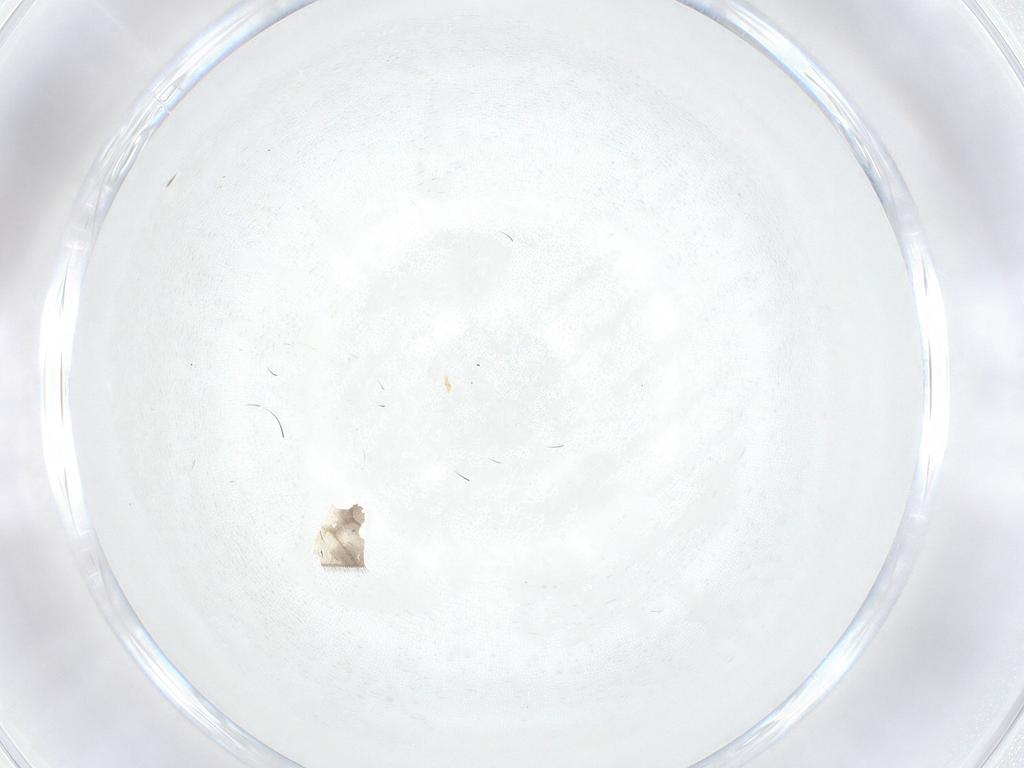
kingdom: Animalia
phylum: Arthropoda
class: Insecta
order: Diptera
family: Limoniidae
